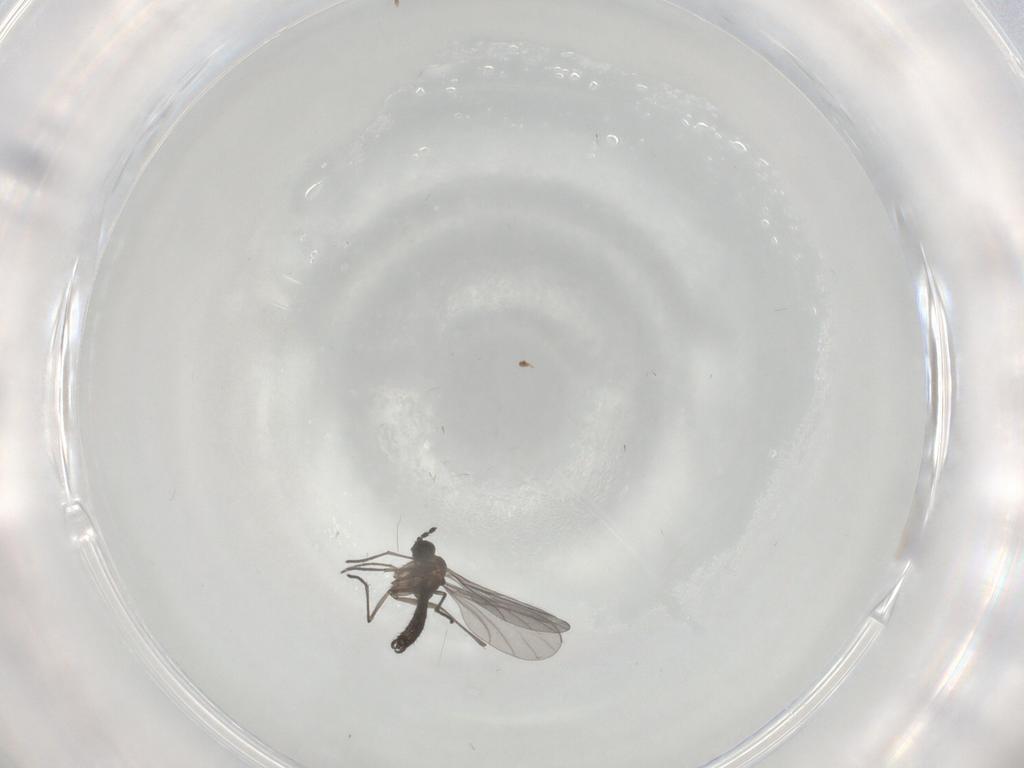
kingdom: Animalia
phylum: Arthropoda
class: Insecta
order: Diptera
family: Cecidomyiidae
